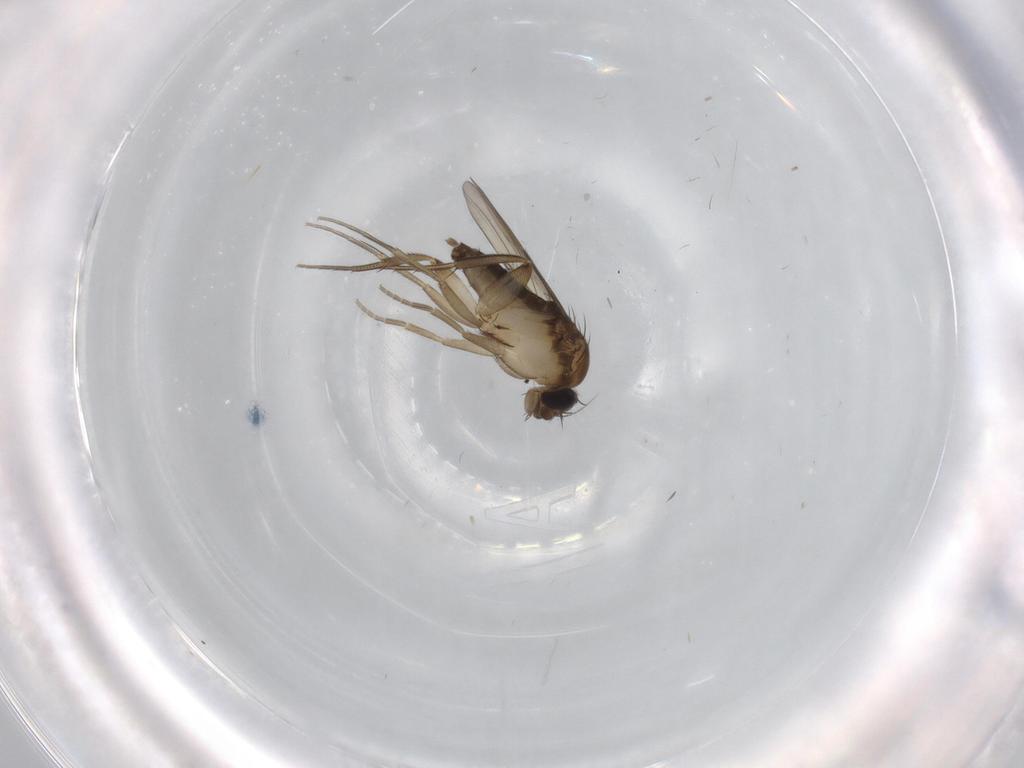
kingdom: Animalia
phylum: Arthropoda
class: Insecta
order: Diptera
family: Phoridae
